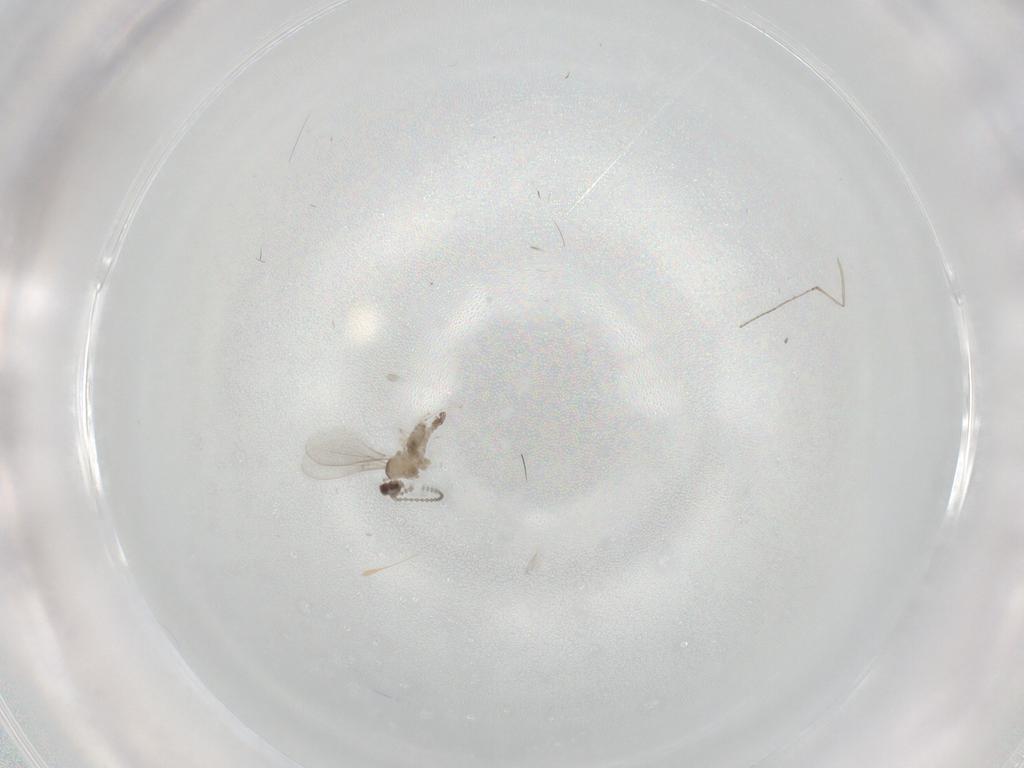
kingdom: Animalia
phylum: Arthropoda
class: Insecta
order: Diptera
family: Cecidomyiidae
